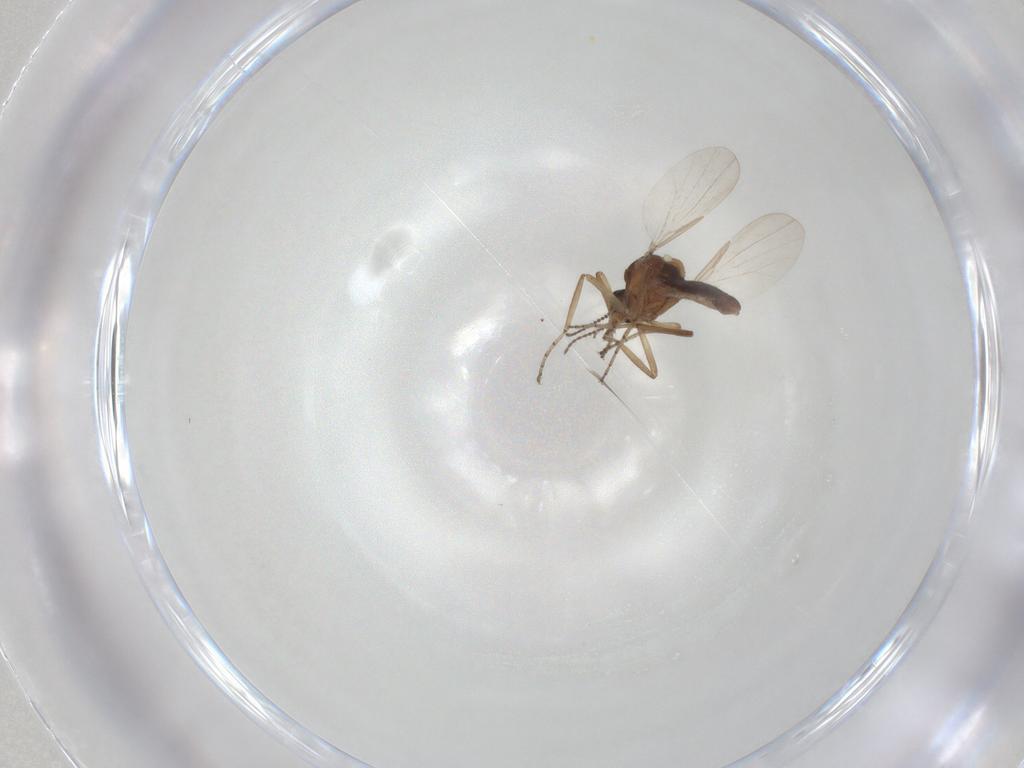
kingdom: Animalia
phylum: Arthropoda
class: Insecta
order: Diptera
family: Ceratopogonidae
